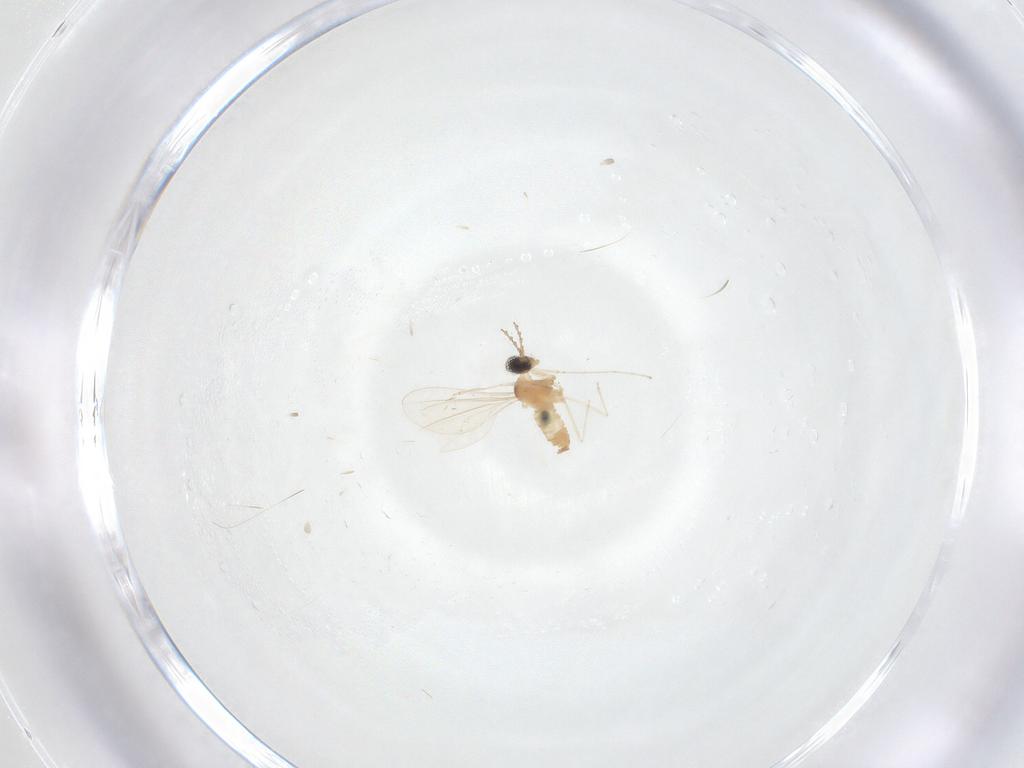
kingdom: Animalia
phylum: Arthropoda
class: Insecta
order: Diptera
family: Cecidomyiidae
